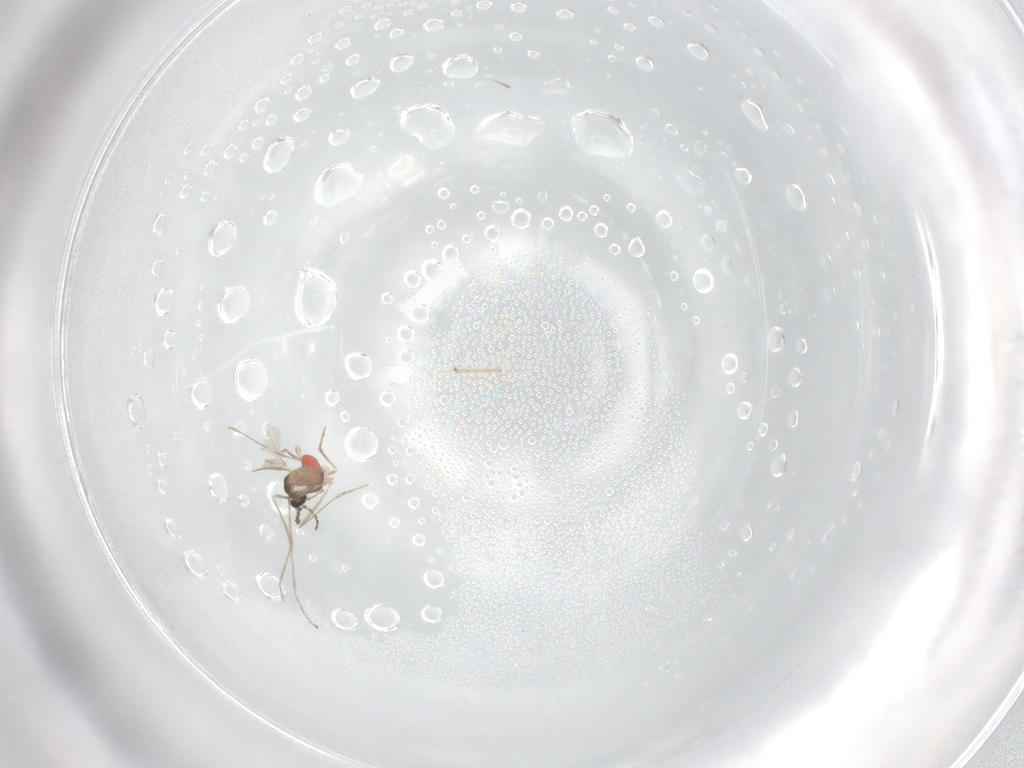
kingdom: Animalia
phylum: Arthropoda
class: Insecta
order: Diptera
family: Cecidomyiidae
